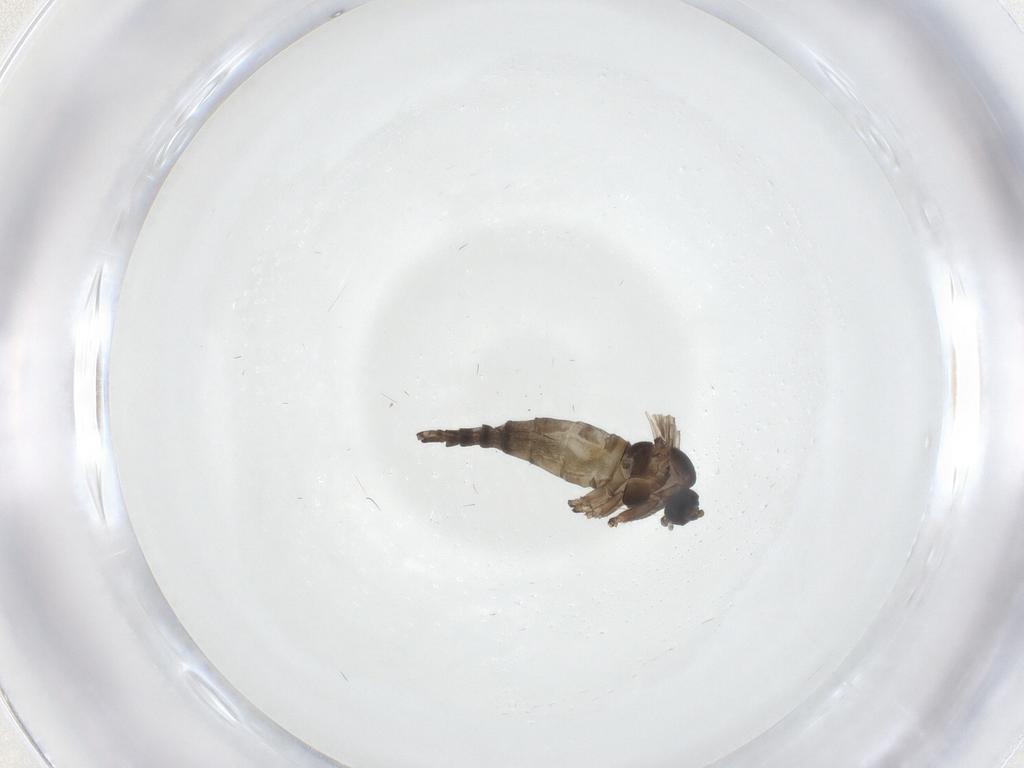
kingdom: Animalia
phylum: Arthropoda
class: Insecta
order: Diptera
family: Sciaridae
